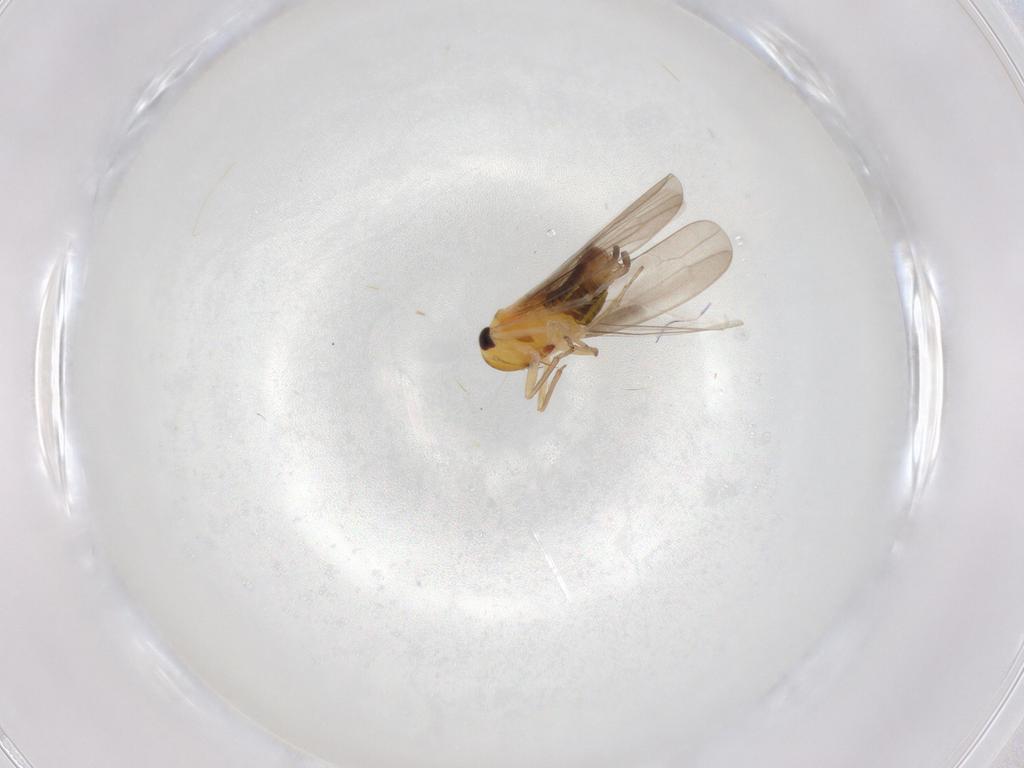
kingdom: Animalia
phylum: Arthropoda
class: Insecta
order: Hemiptera
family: Cicadellidae
